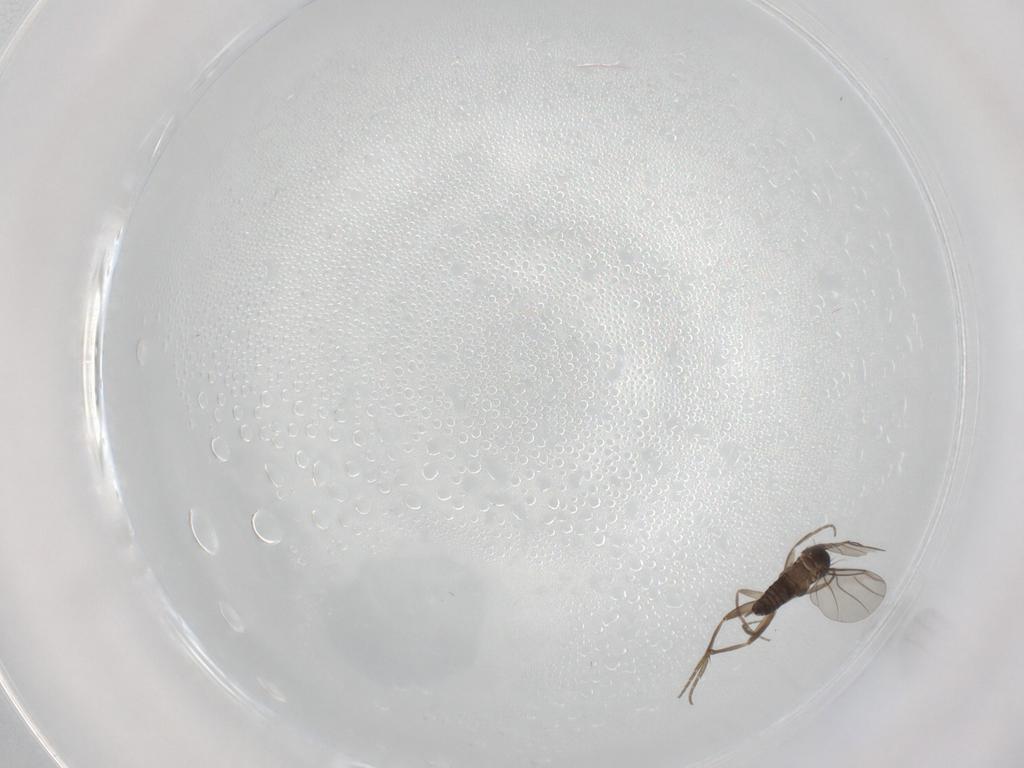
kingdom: Animalia
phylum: Arthropoda
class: Insecta
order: Diptera
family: Phoridae
